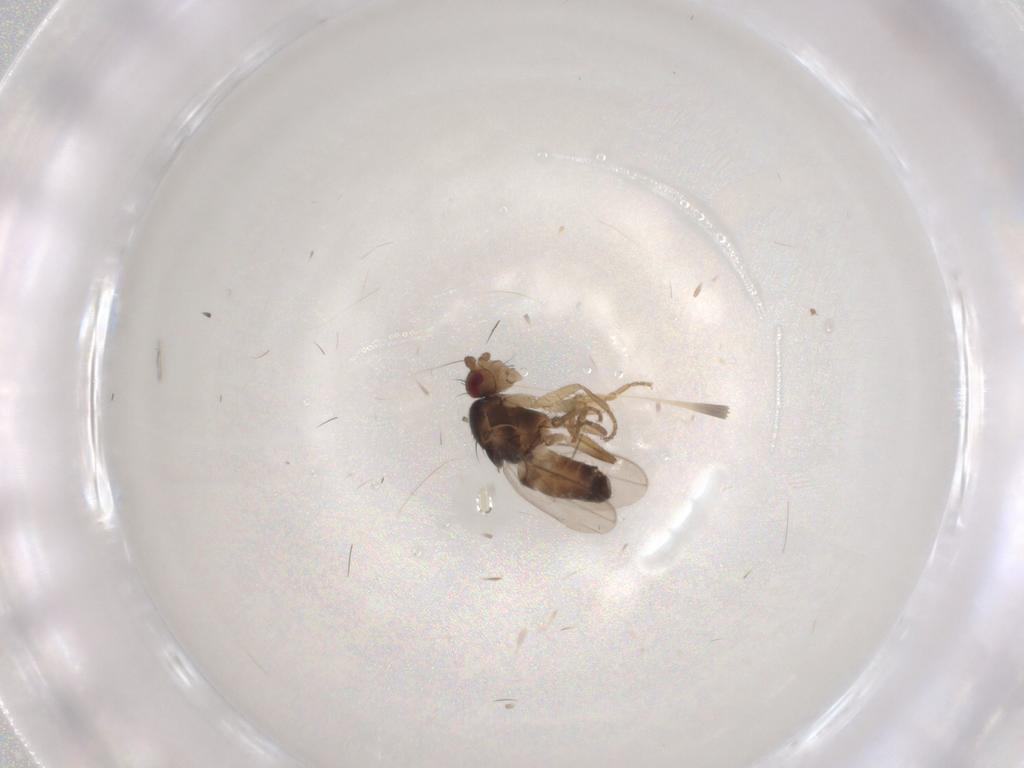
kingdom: Animalia
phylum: Arthropoda
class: Insecta
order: Diptera
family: Sphaeroceridae
